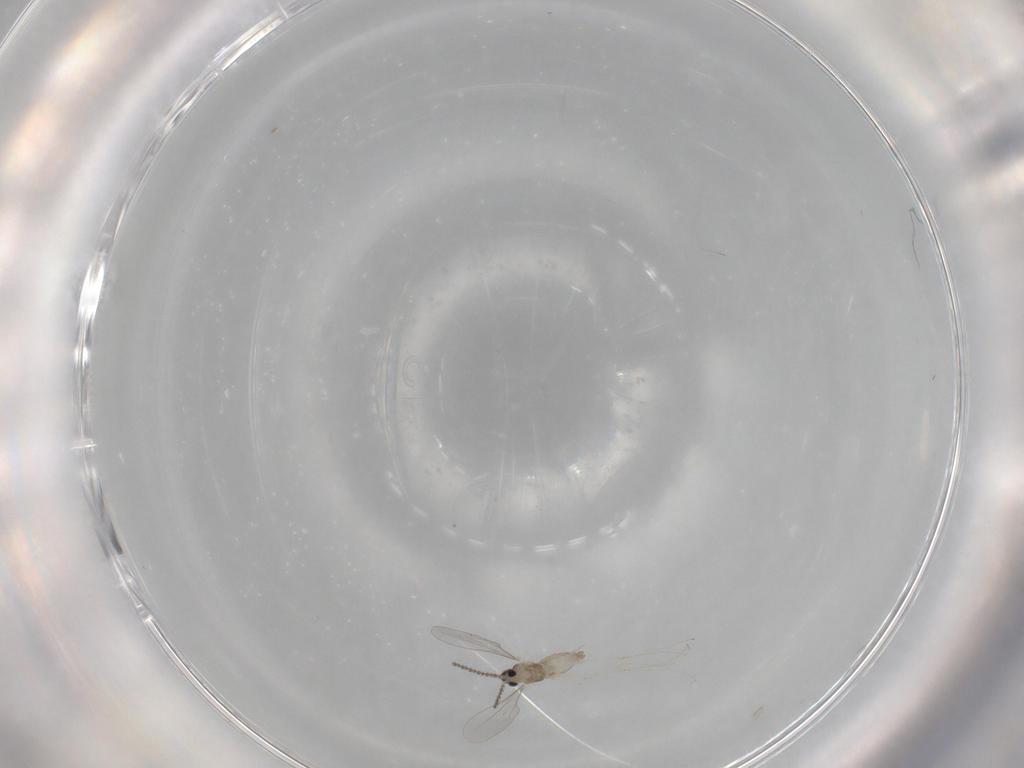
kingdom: Animalia
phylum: Arthropoda
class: Insecta
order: Diptera
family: Cecidomyiidae
